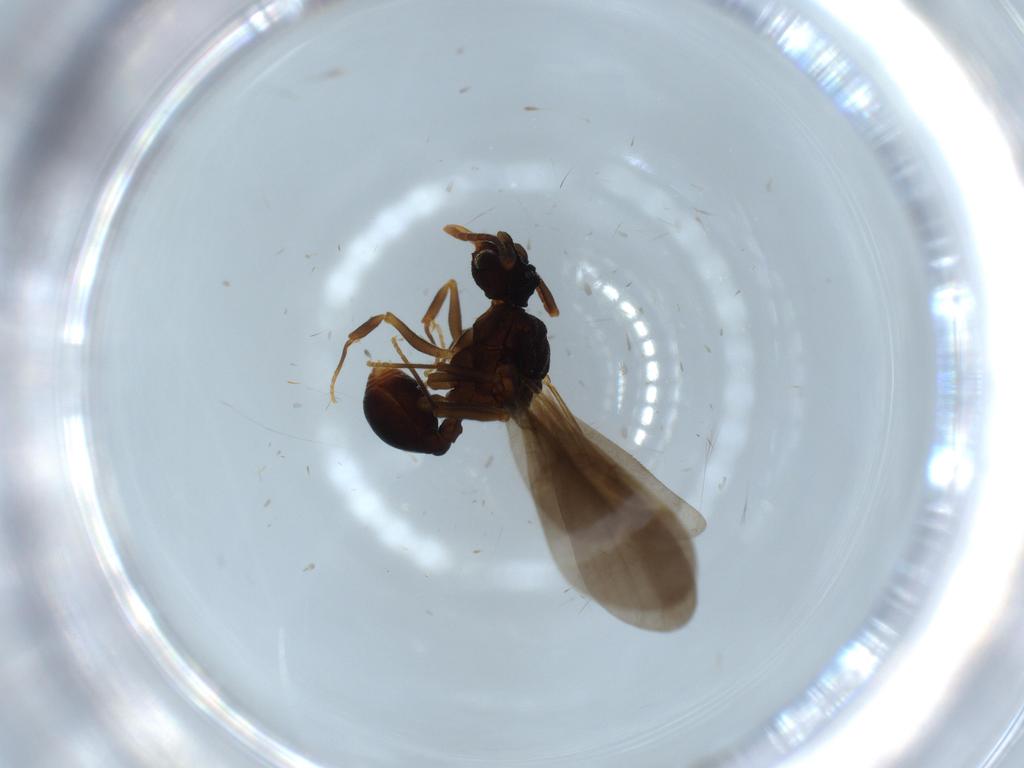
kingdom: Animalia
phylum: Arthropoda
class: Insecta
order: Hymenoptera
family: Formicidae
